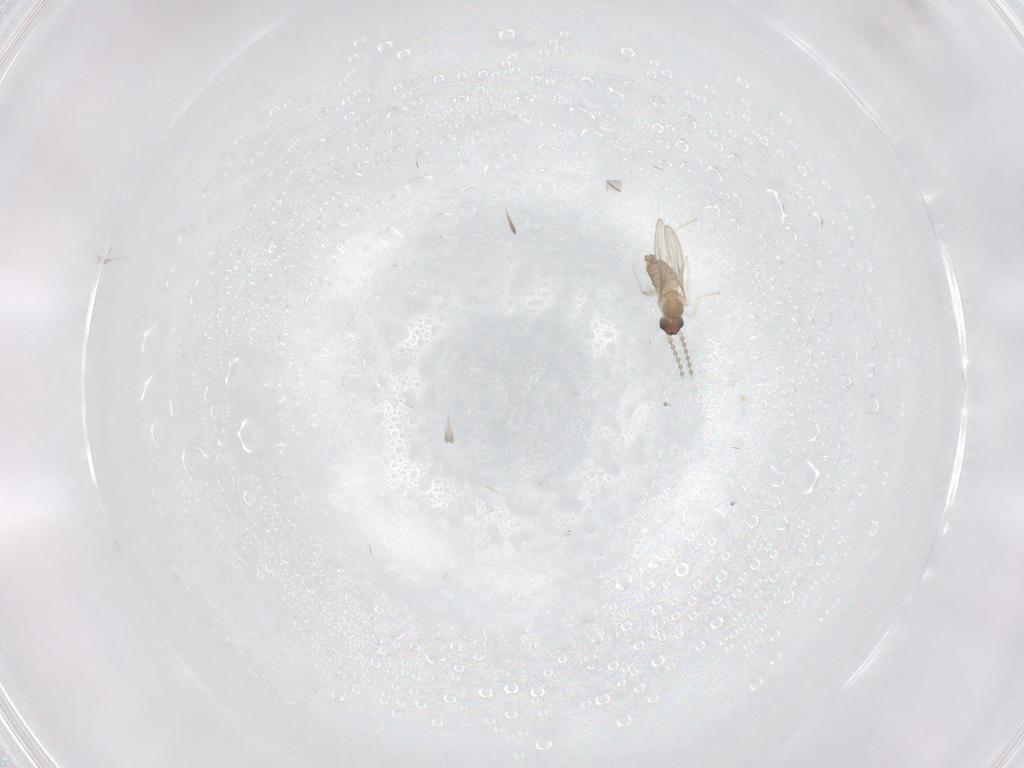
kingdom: Animalia
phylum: Arthropoda
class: Insecta
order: Diptera
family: Cecidomyiidae
